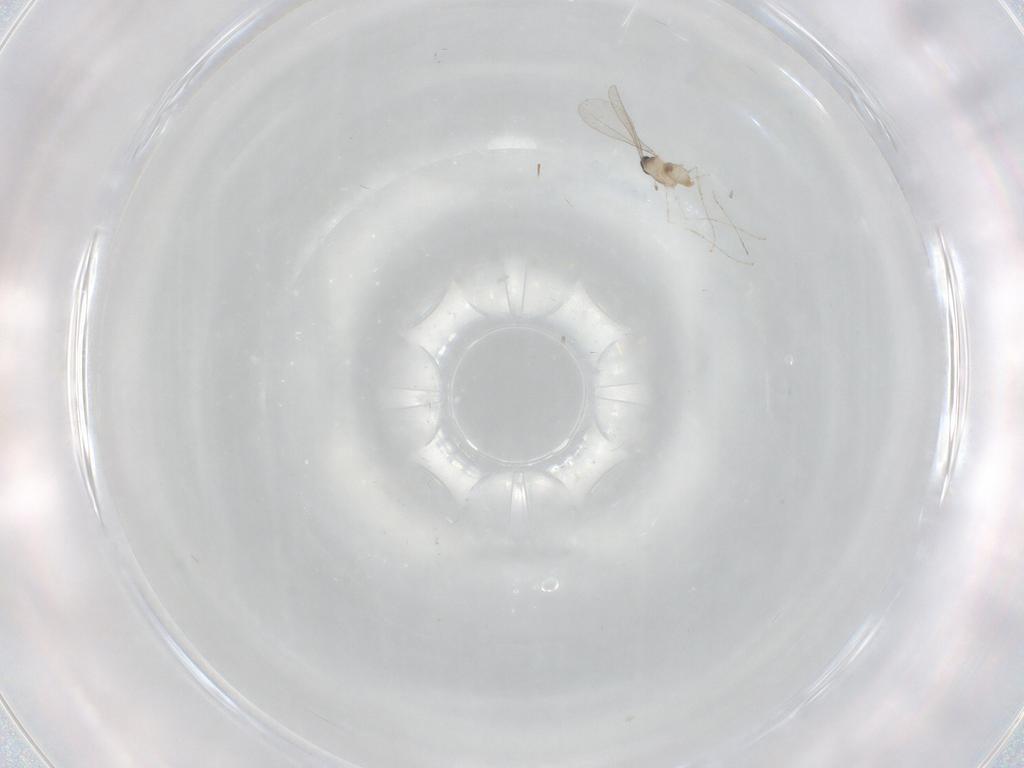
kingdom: Animalia
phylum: Arthropoda
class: Insecta
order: Diptera
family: Cecidomyiidae
